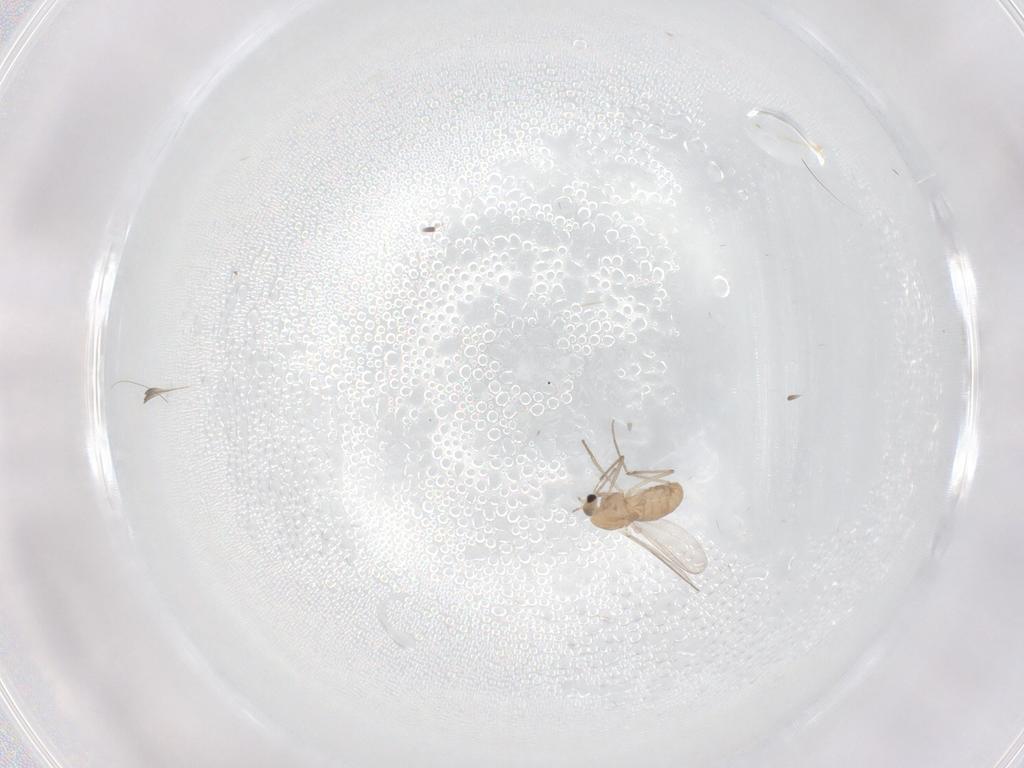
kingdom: Animalia
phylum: Arthropoda
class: Insecta
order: Diptera
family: Chironomidae
